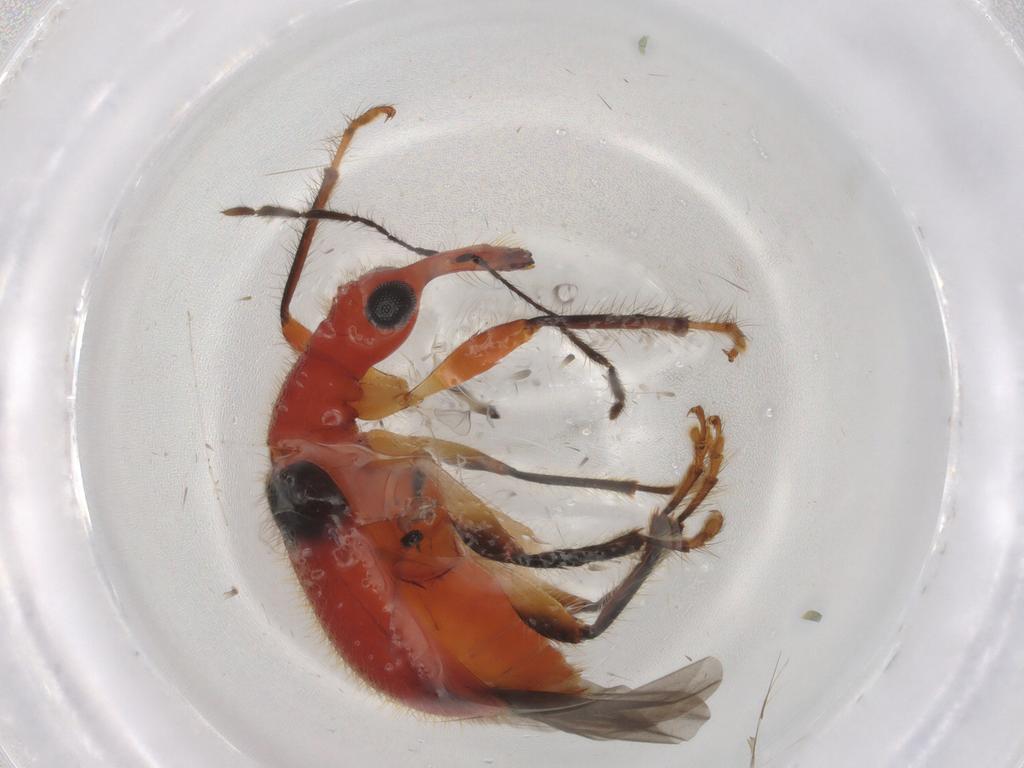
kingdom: Animalia
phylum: Arthropoda
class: Insecta
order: Coleoptera
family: Attelabidae
